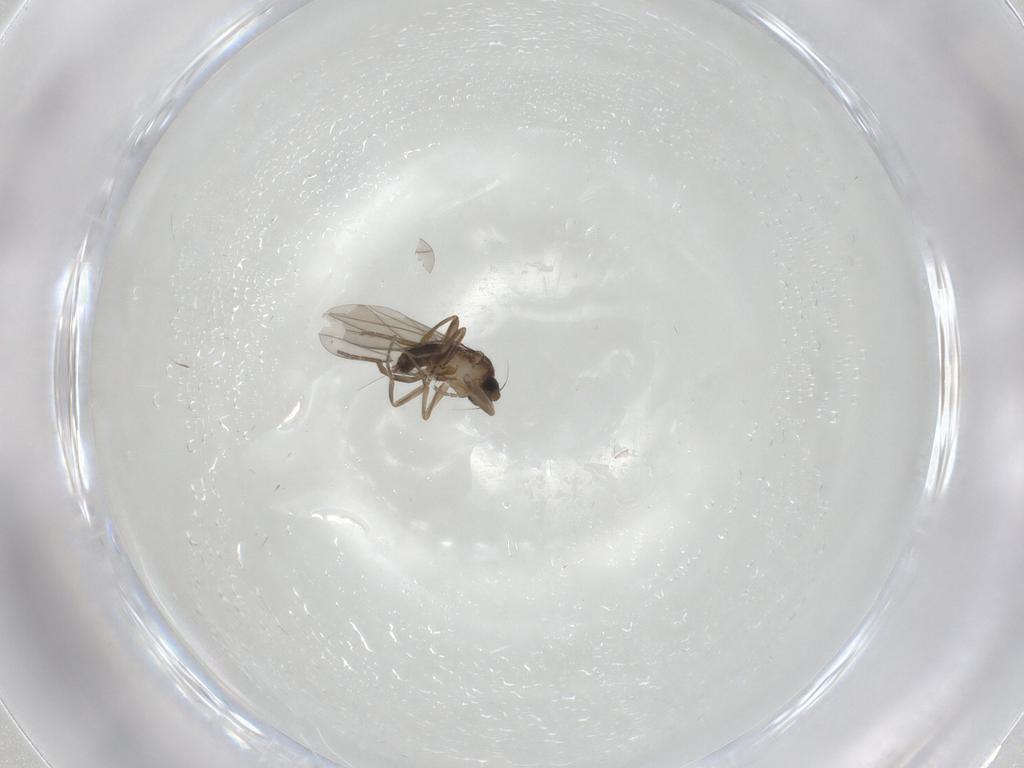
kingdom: Animalia
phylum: Arthropoda
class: Insecta
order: Diptera
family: Phoridae
